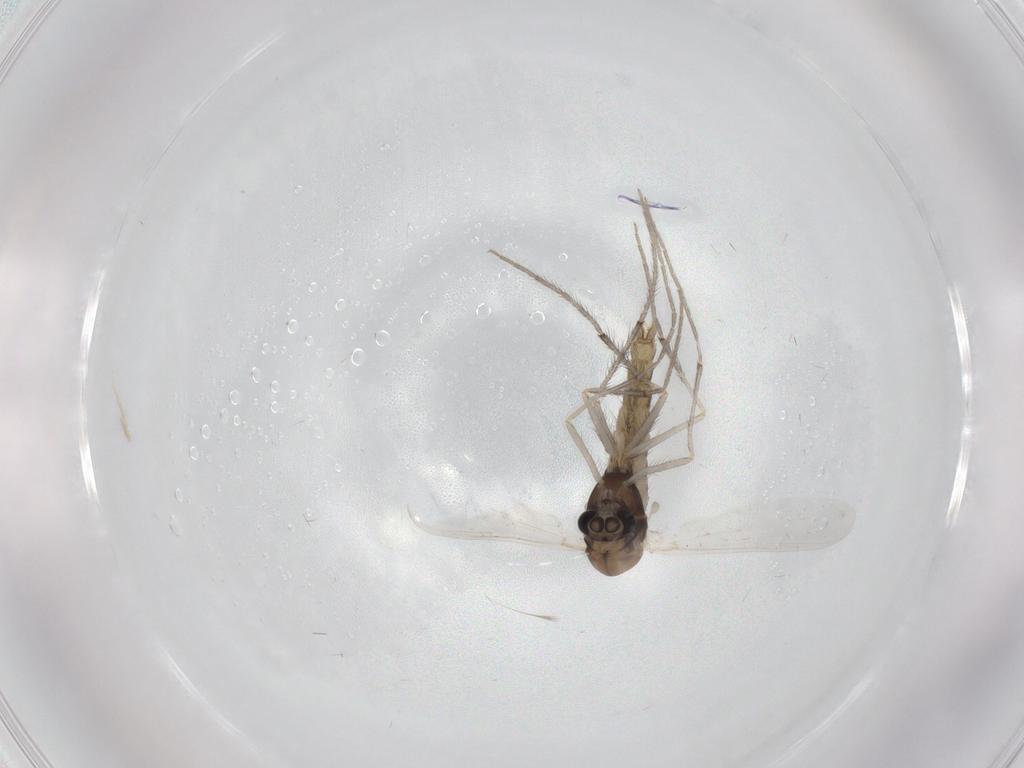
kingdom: Animalia
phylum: Arthropoda
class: Insecta
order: Diptera
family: Chironomidae
